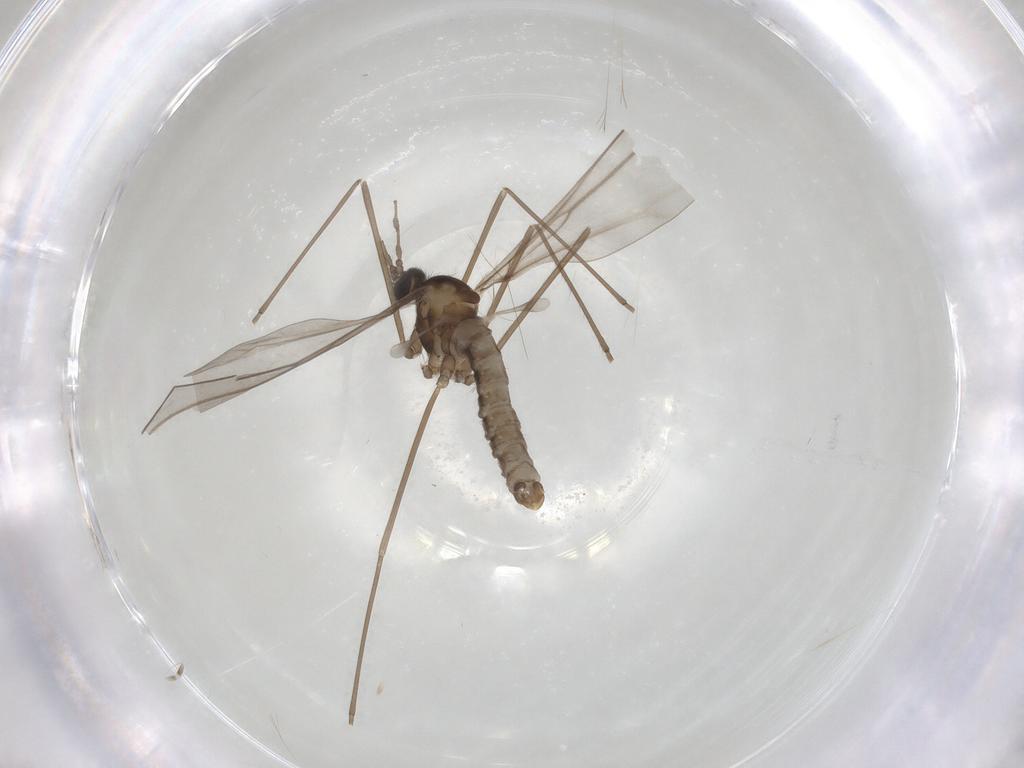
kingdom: Animalia
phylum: Arthropoda
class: Insecta
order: Diptera
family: Cecidomyiidae
